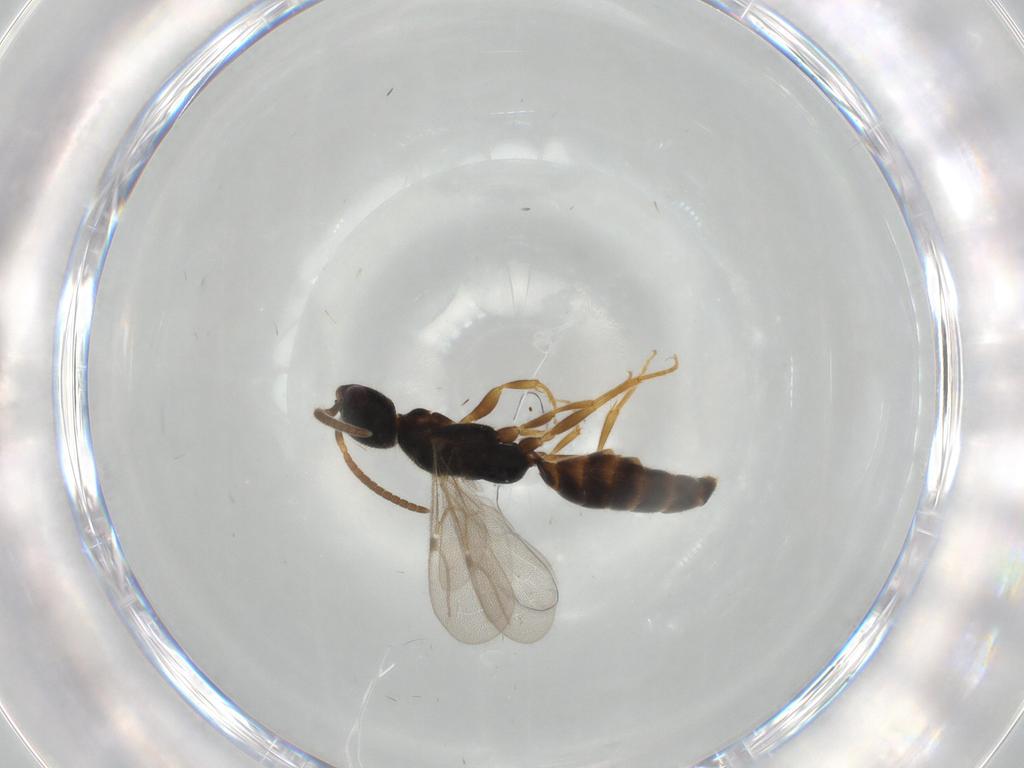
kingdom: Animalia
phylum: Arthropoda
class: Insecta
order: Hymenoptera
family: Bethylidae
